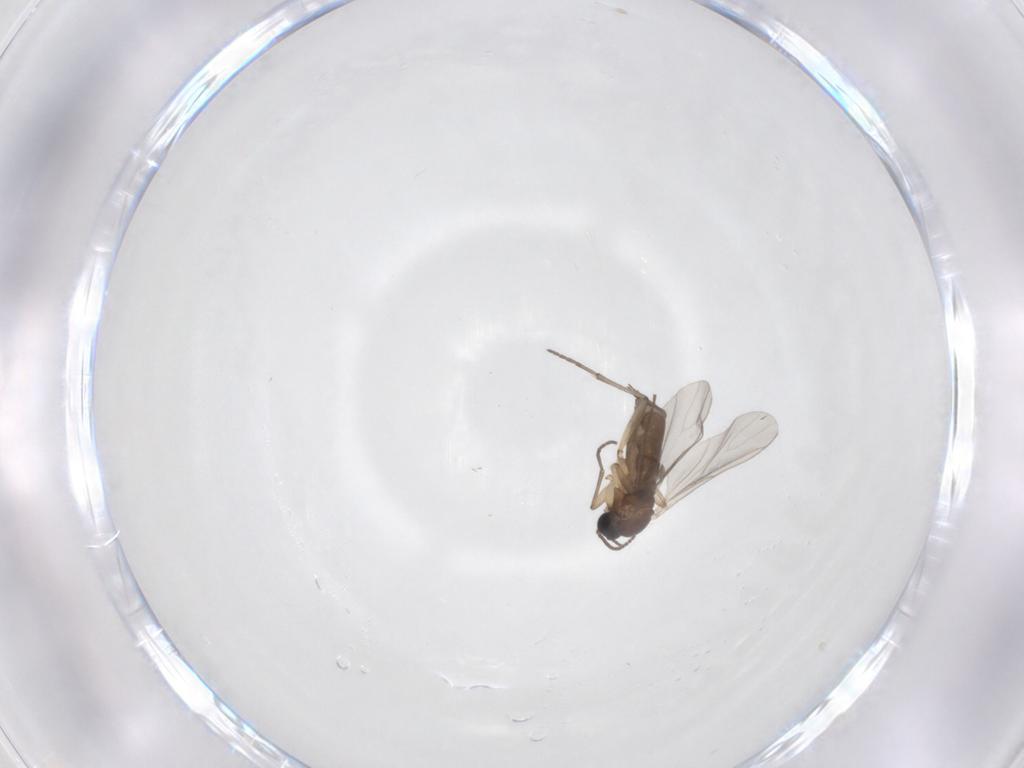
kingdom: Animalia
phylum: Arthropoda
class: Insecta
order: Diptera
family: Sciaridae
